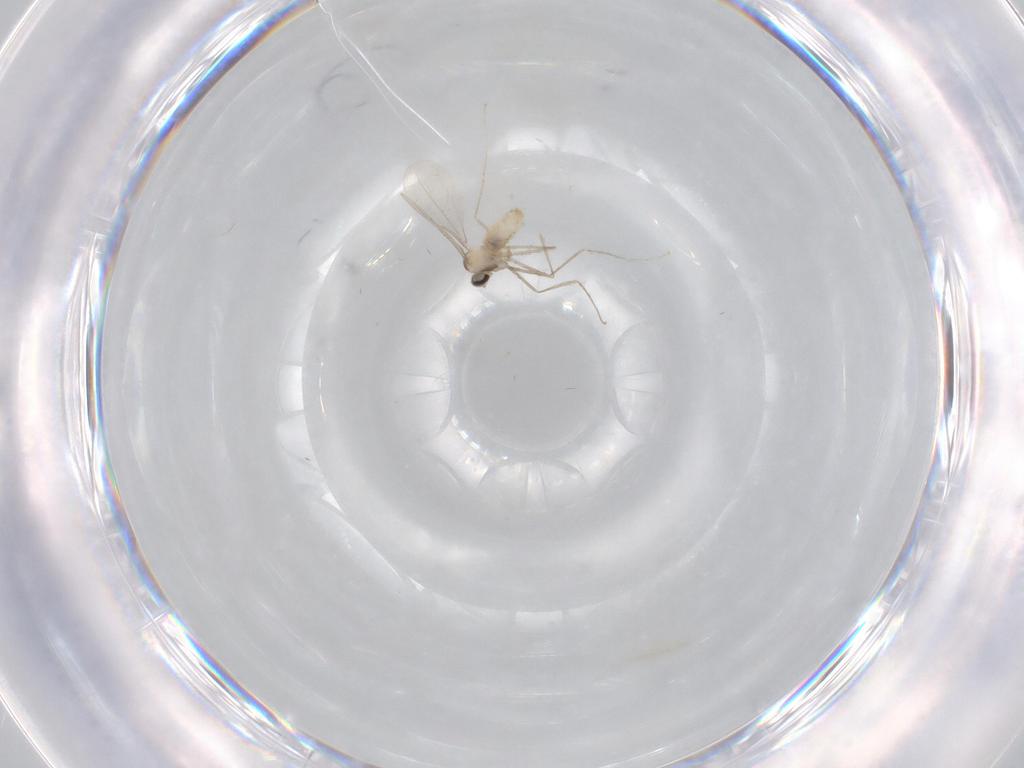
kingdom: Animalia
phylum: Arthropoda
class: Insecta
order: Diptera
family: Cecidomyiidae
